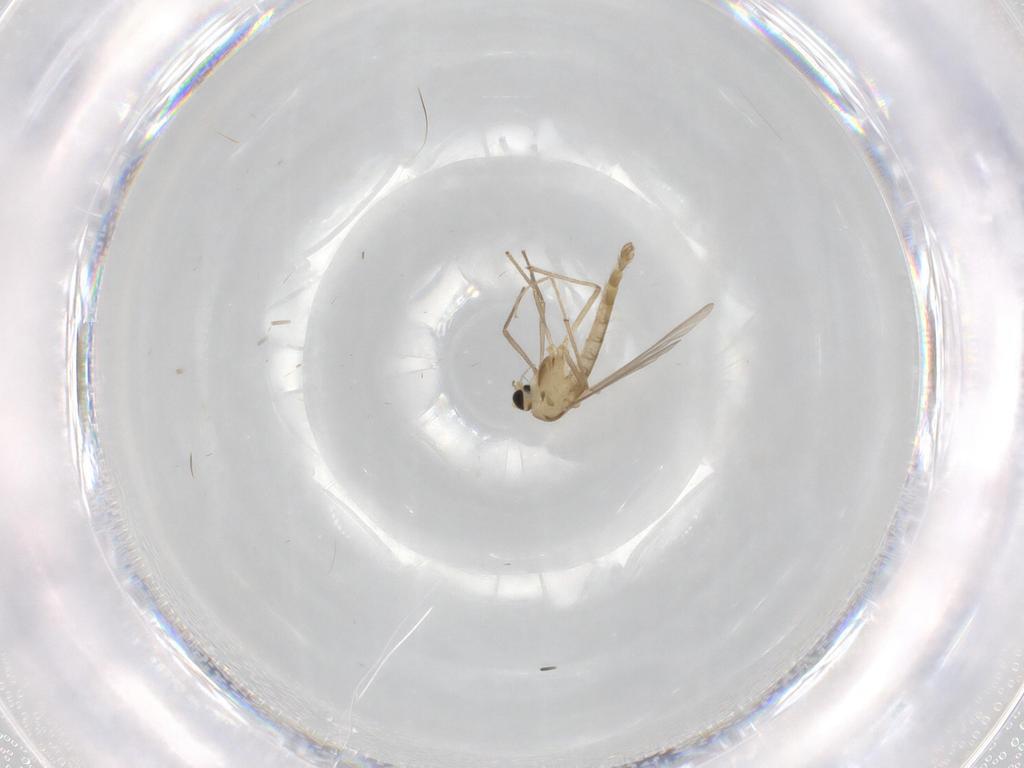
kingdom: Animalia
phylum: Arthropoda
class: Insecta
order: Diptera
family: Chironomidae
